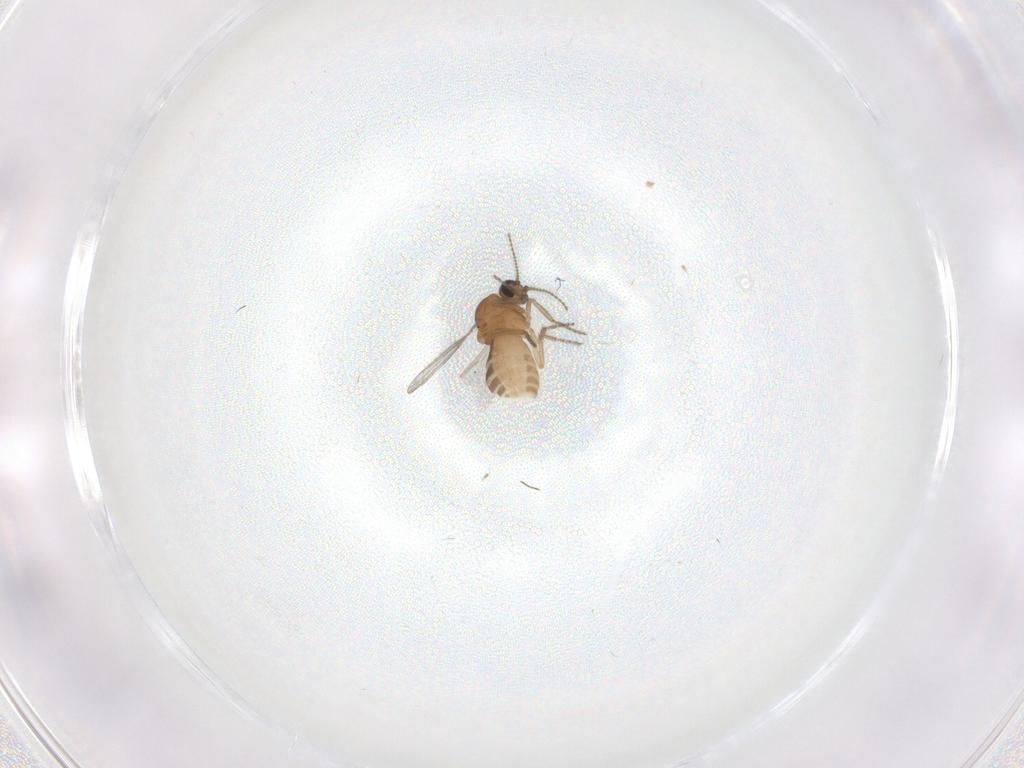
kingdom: Animalia
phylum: Arthropoda
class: Insecta
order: Diptera
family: Ceratopogonidae
